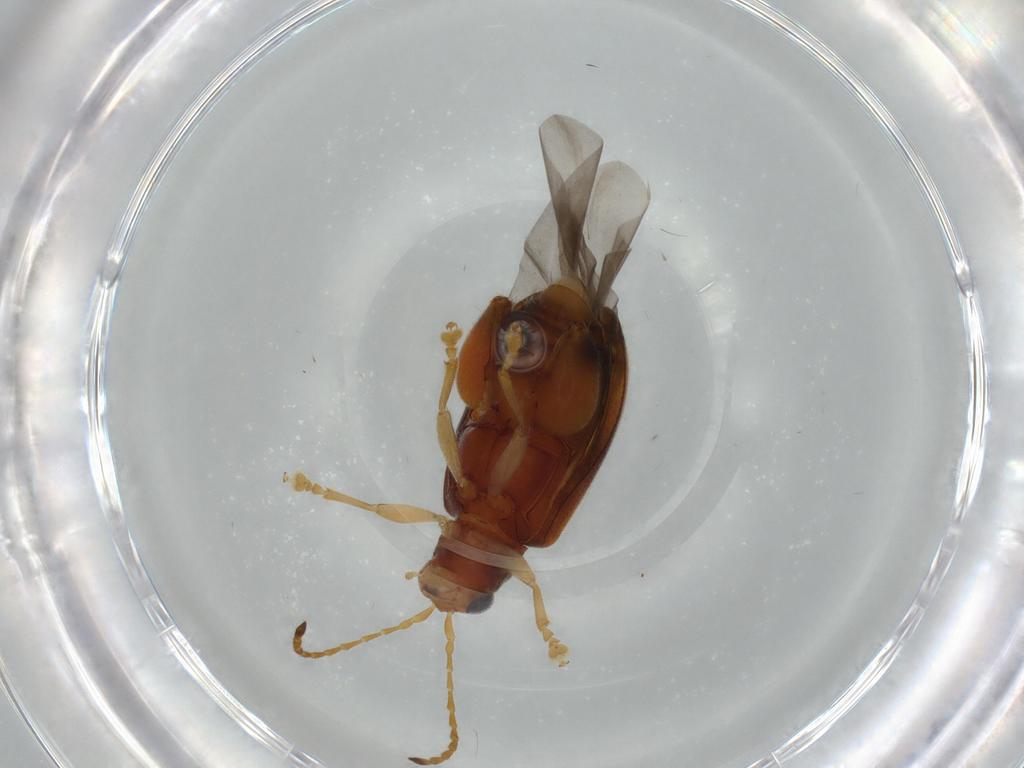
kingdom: Animalia
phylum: Arthropoda
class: Insecta
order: Coleoptera
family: Chrysomelidae
